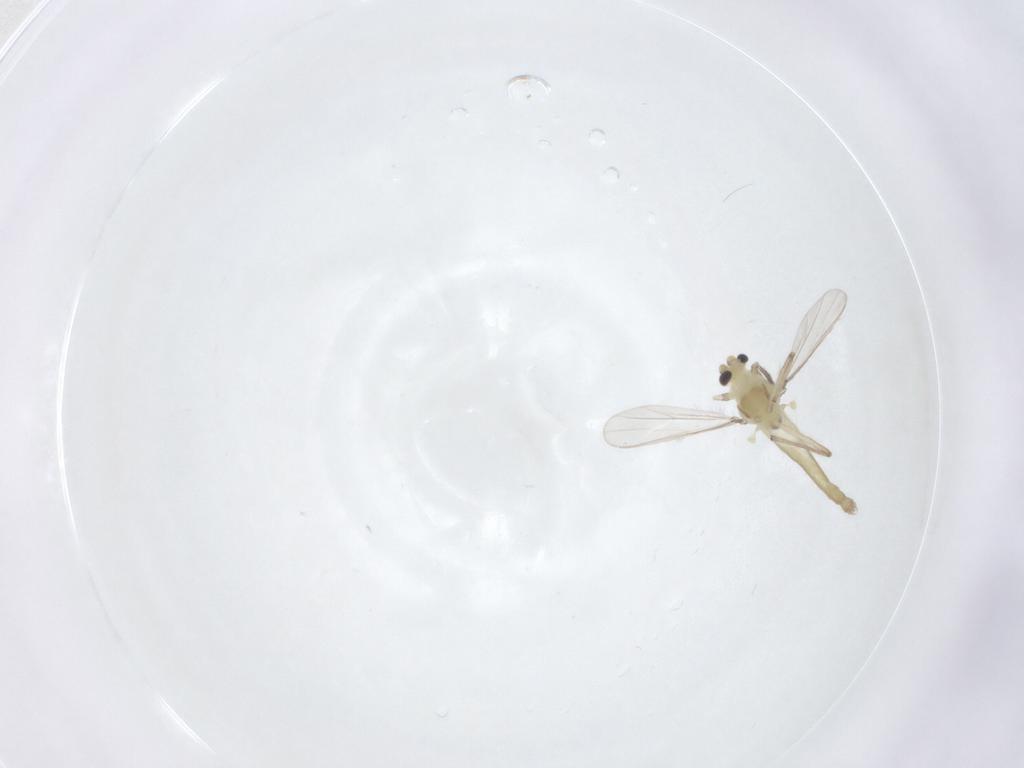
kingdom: Animalia
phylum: Arthropoda
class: Insecta
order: Diptera
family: Chironomidae
